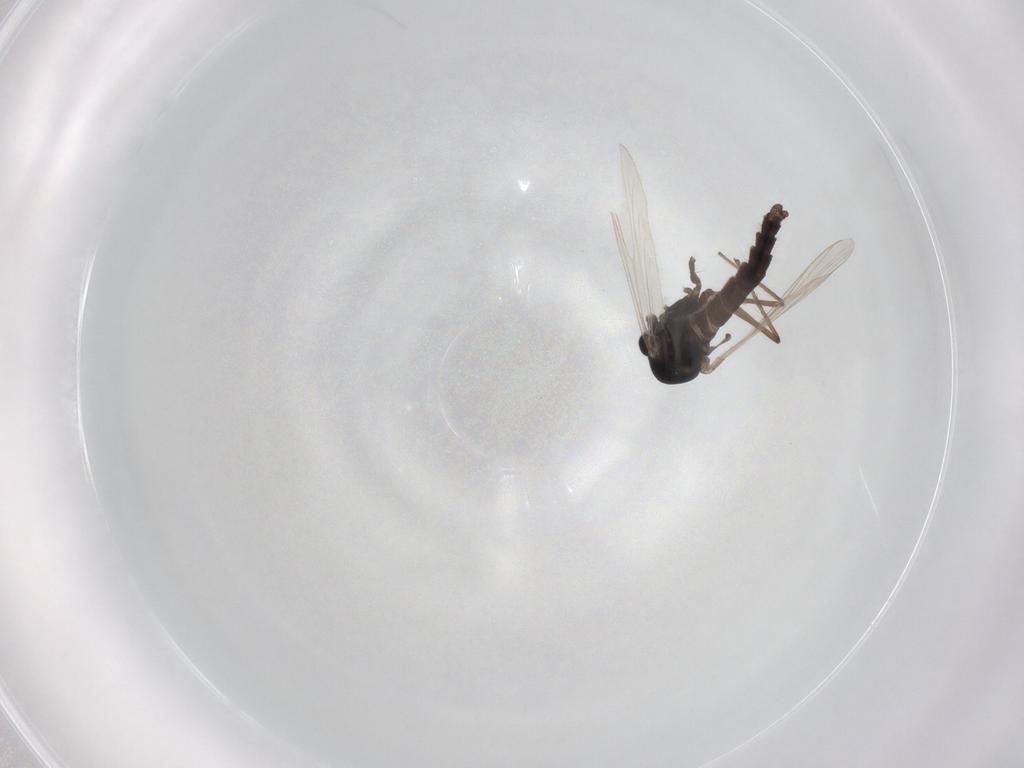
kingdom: Animalia
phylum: Arthropoda
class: Insecta
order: Diptera
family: Chironomidae
